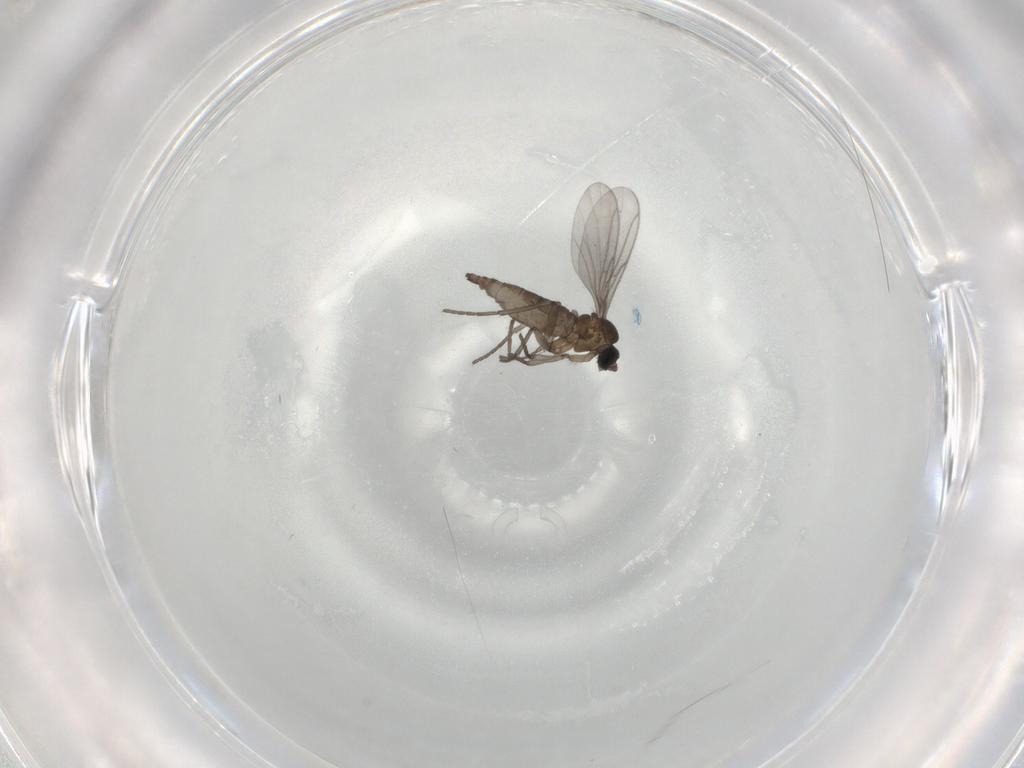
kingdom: Animalia
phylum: Arthropoda
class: Insecta
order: Diptera
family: Sciaridae
